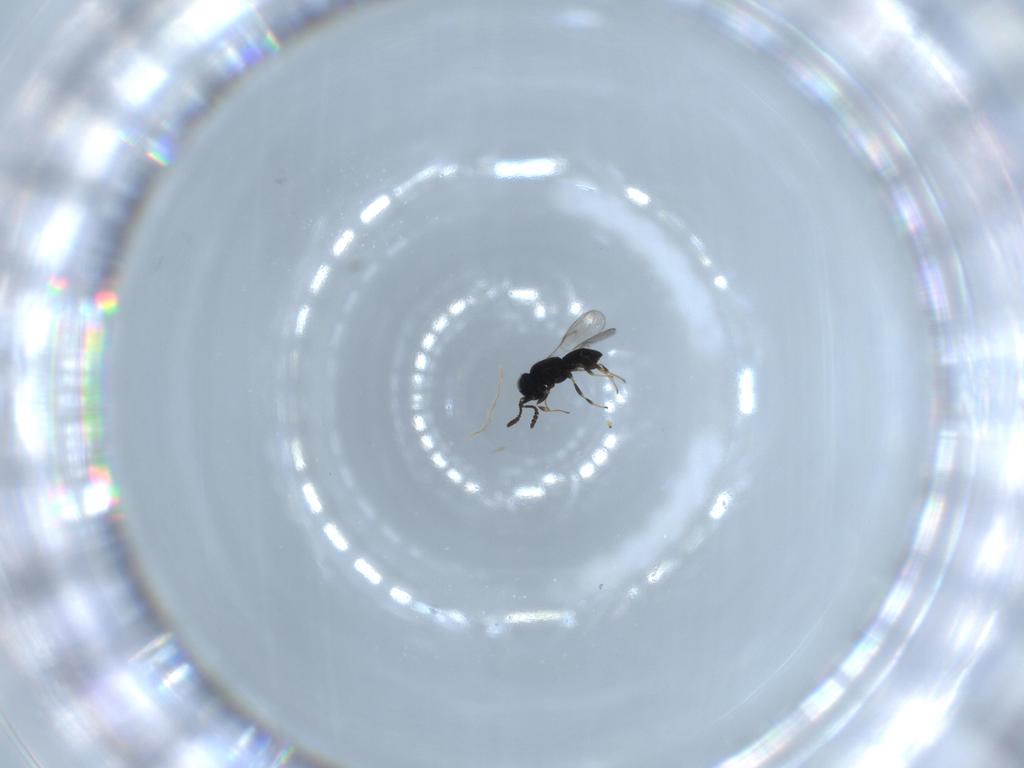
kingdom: Animalia
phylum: Arthropoda
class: Insecta
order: Hymenoptera
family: Scelionidae
